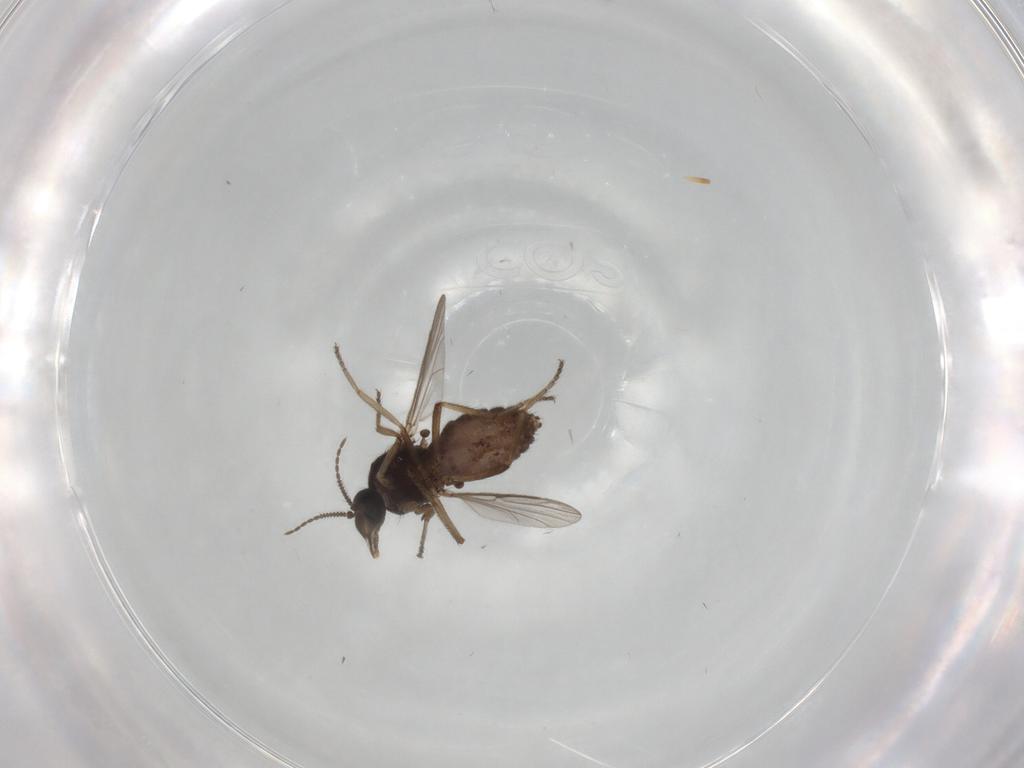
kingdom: Animalia
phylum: Arthropoda
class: Insecta
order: Diptera
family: Ceratopogonidae
